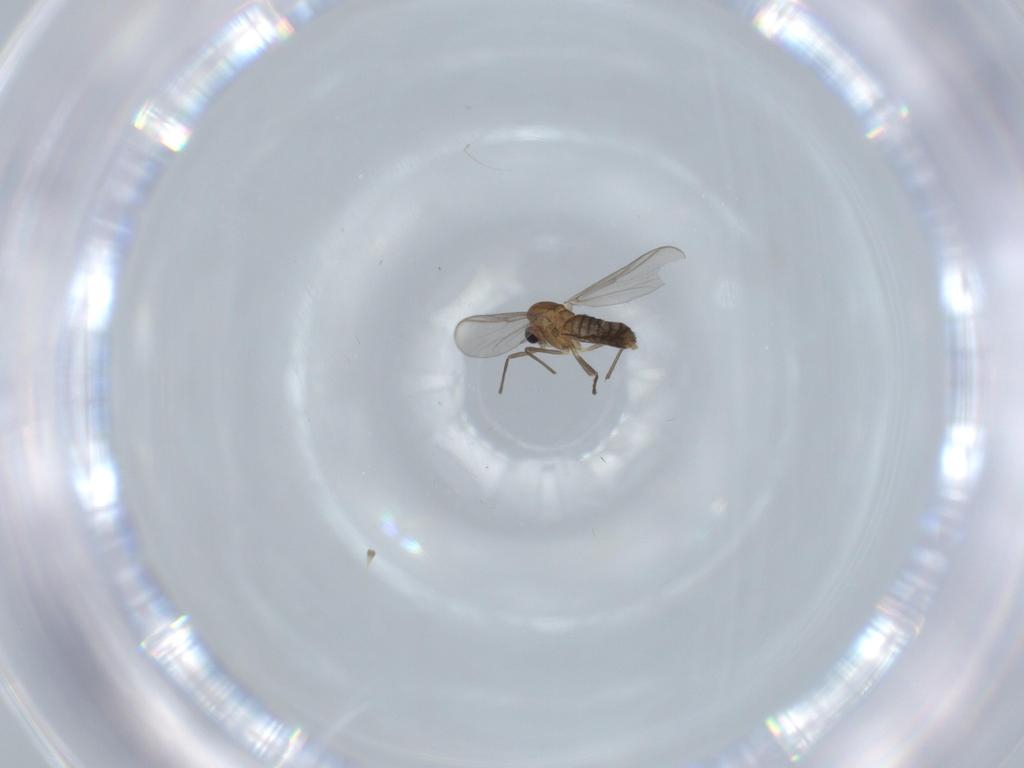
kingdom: Animalia
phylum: Arthropoda
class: Insecta
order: Diptera
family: Chironomidae
